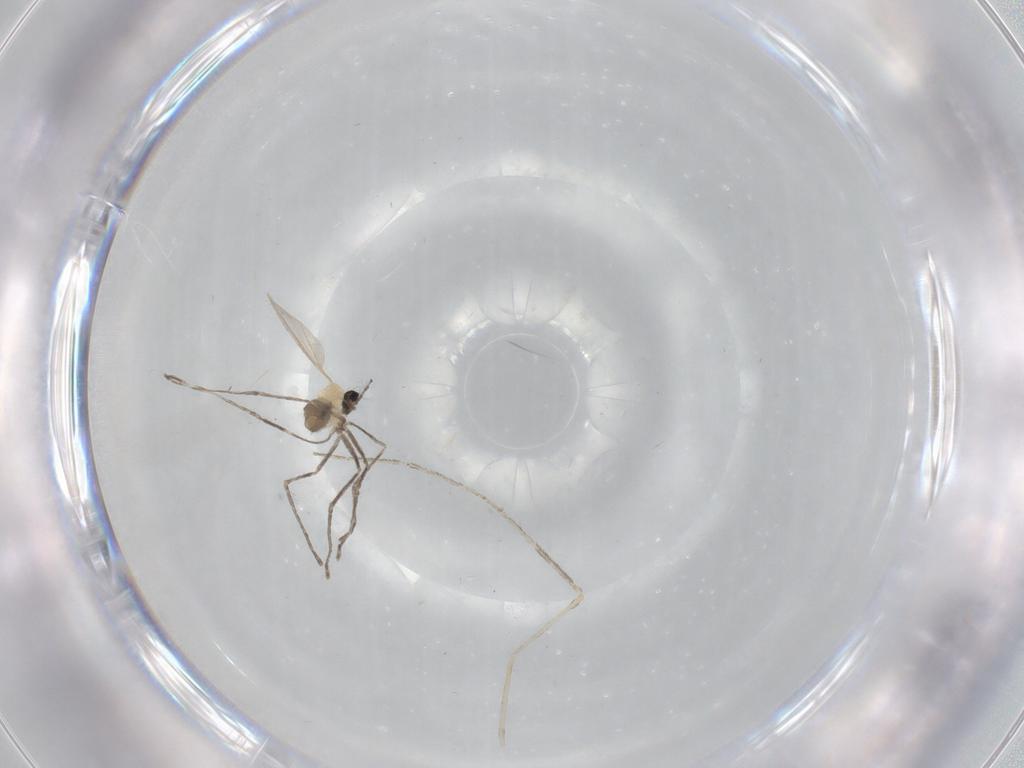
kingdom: Animalia
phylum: Arthropoda
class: Insecta
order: Diptera
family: Cecidomyiidae
